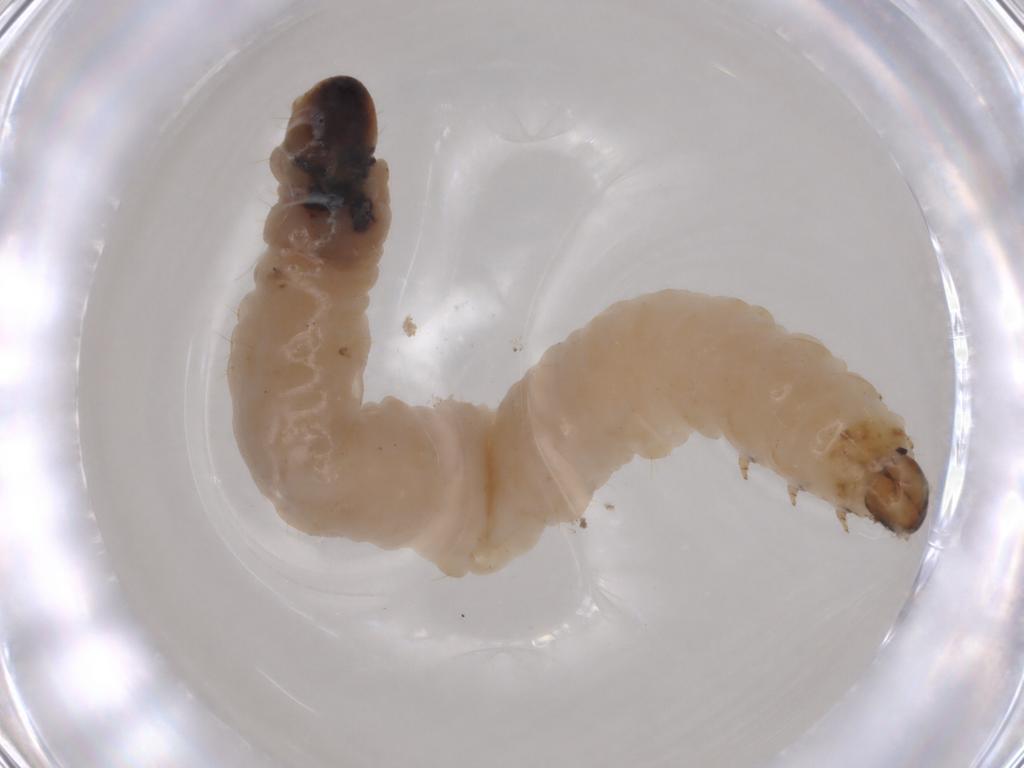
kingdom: Animalia
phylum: Arthropoda
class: Insecta
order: Coleoptera
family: Chrysomelidae
